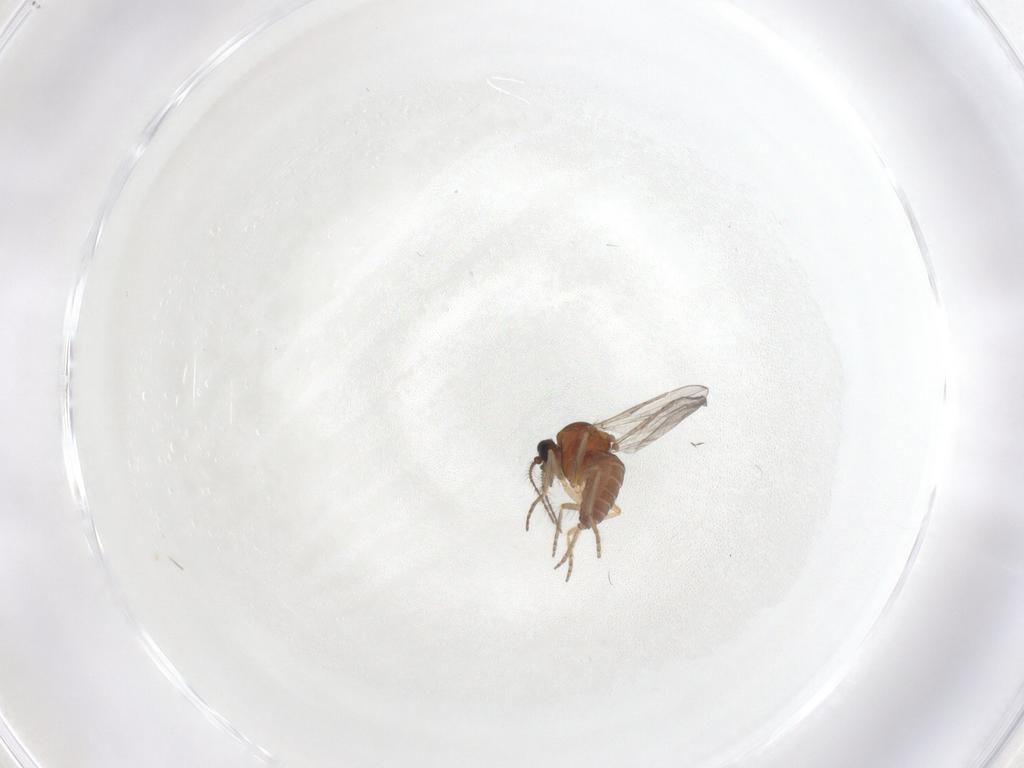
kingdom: Animalia
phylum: Arthropoda
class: Insecta
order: Diptera
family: Ceratopogonidae
